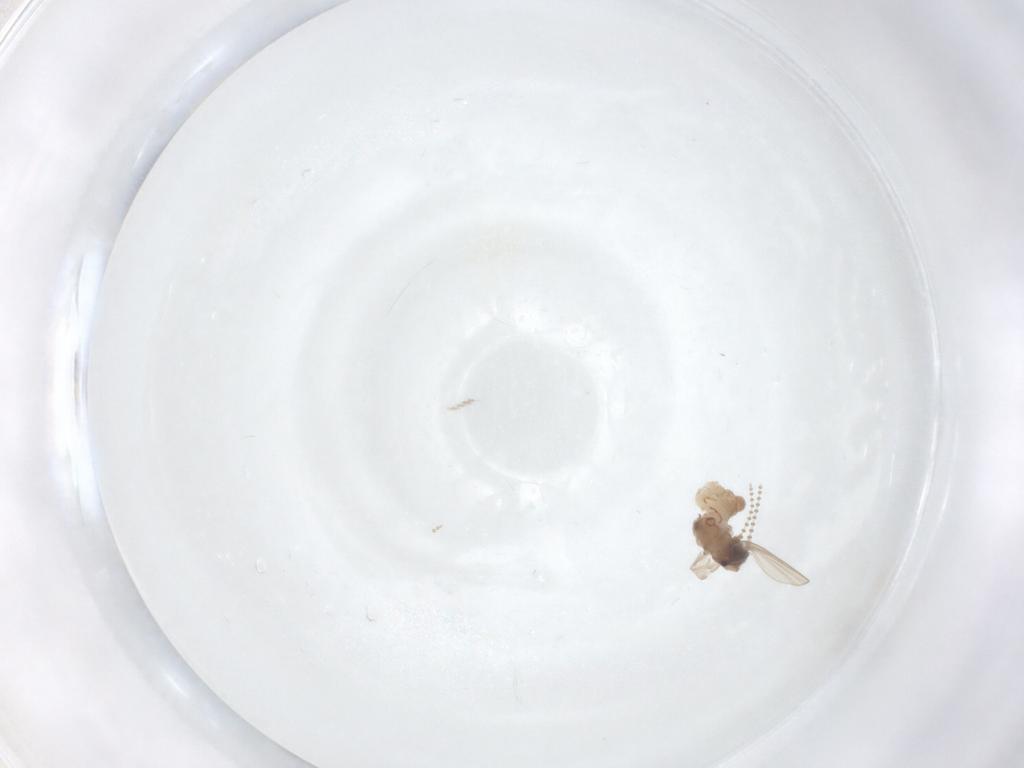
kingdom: Animalia
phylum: Arthropoda
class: Insecta
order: Diptera
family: Psychodidae
